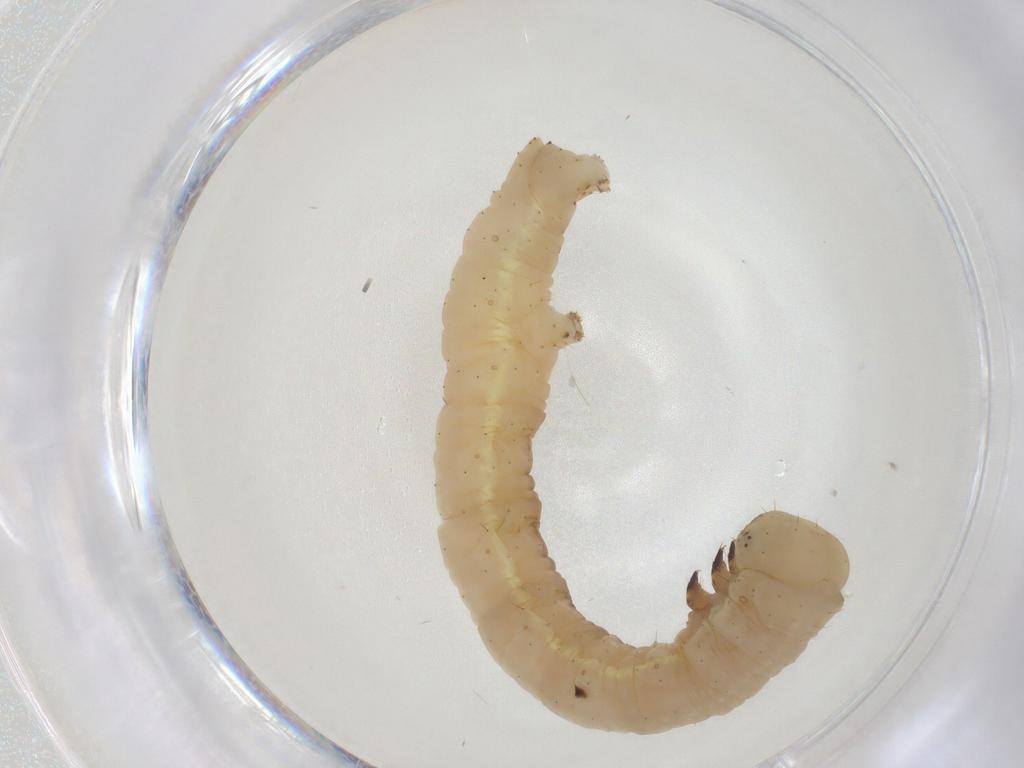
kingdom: Animalia
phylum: Arthropoda
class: Insecta
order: Lepidoptera
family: Geometridae
